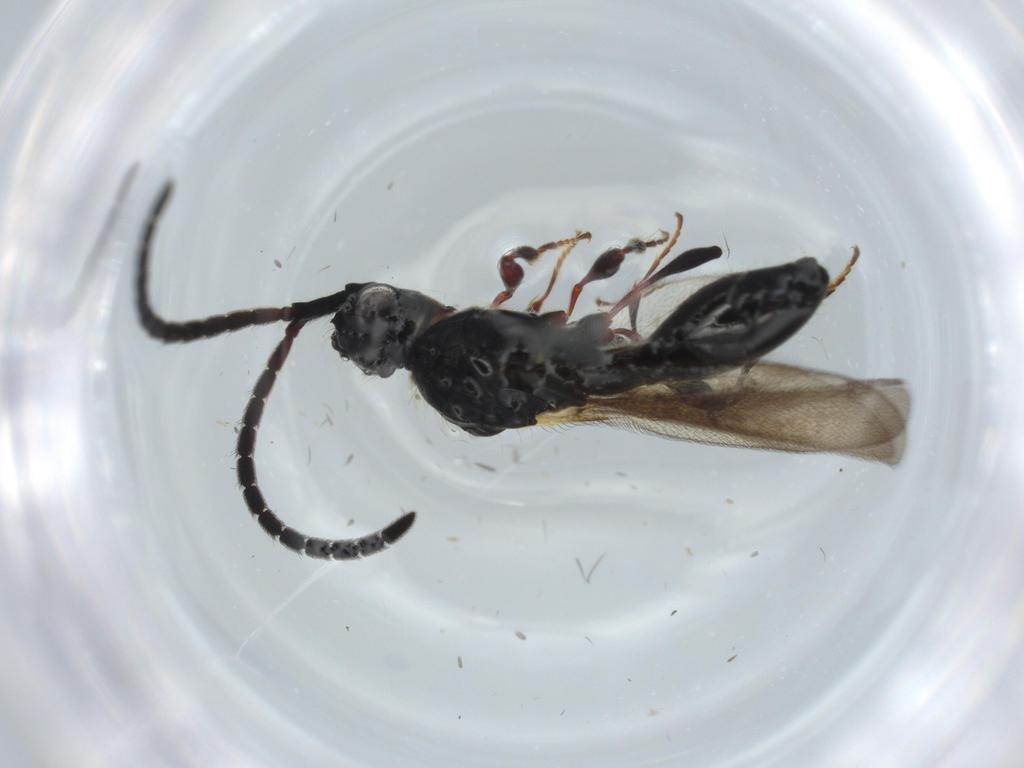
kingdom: Animalia
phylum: Arthropoda
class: Insecta
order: Hymenoptera
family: Diapriidae
